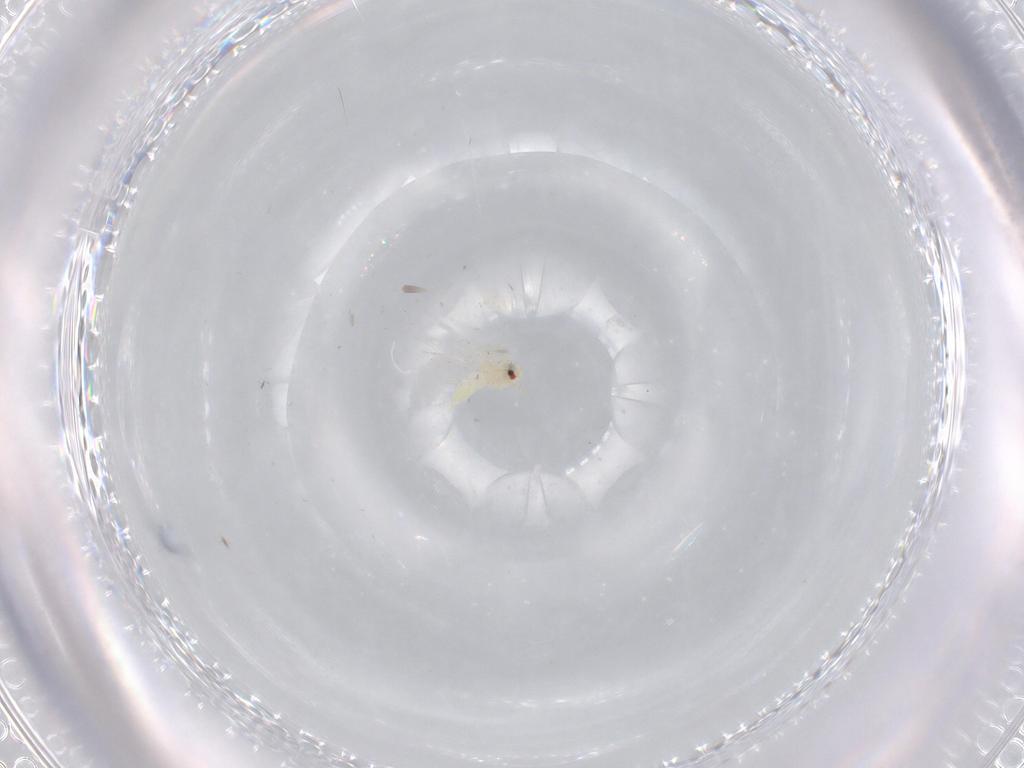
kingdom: Animalia
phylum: Arthropoda
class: Insecta
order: Hemiptera
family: Aleyrodidae
